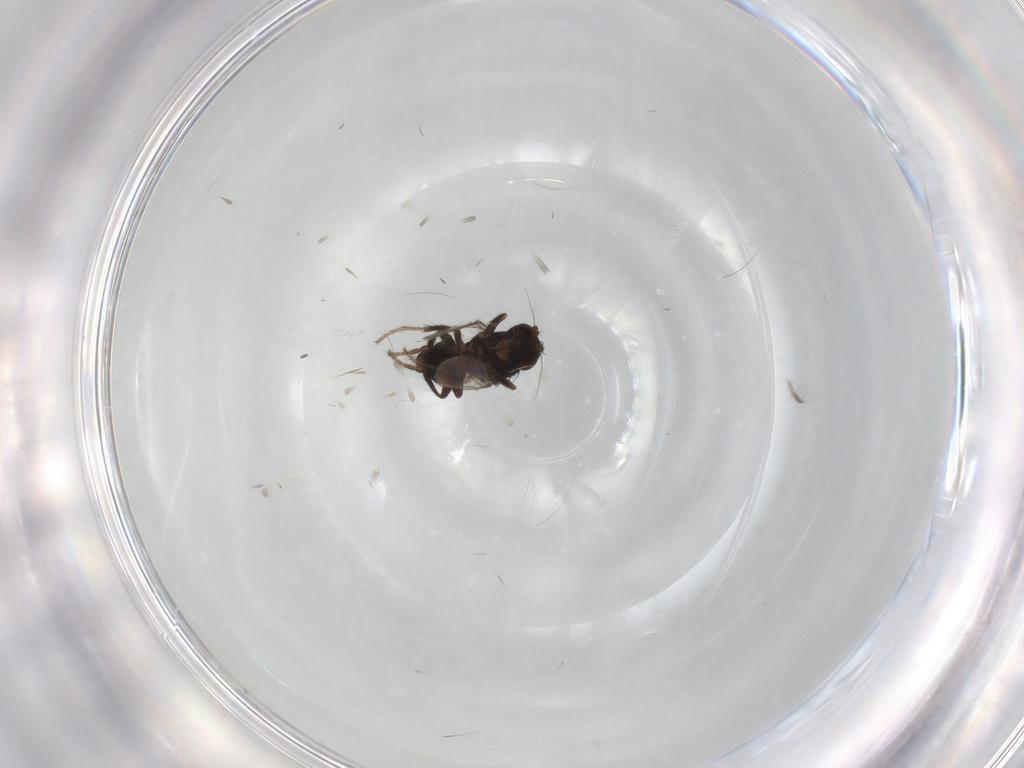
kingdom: Animalia
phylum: Arthropoda
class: Insecta
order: Diptera
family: Sphaeroceridae
